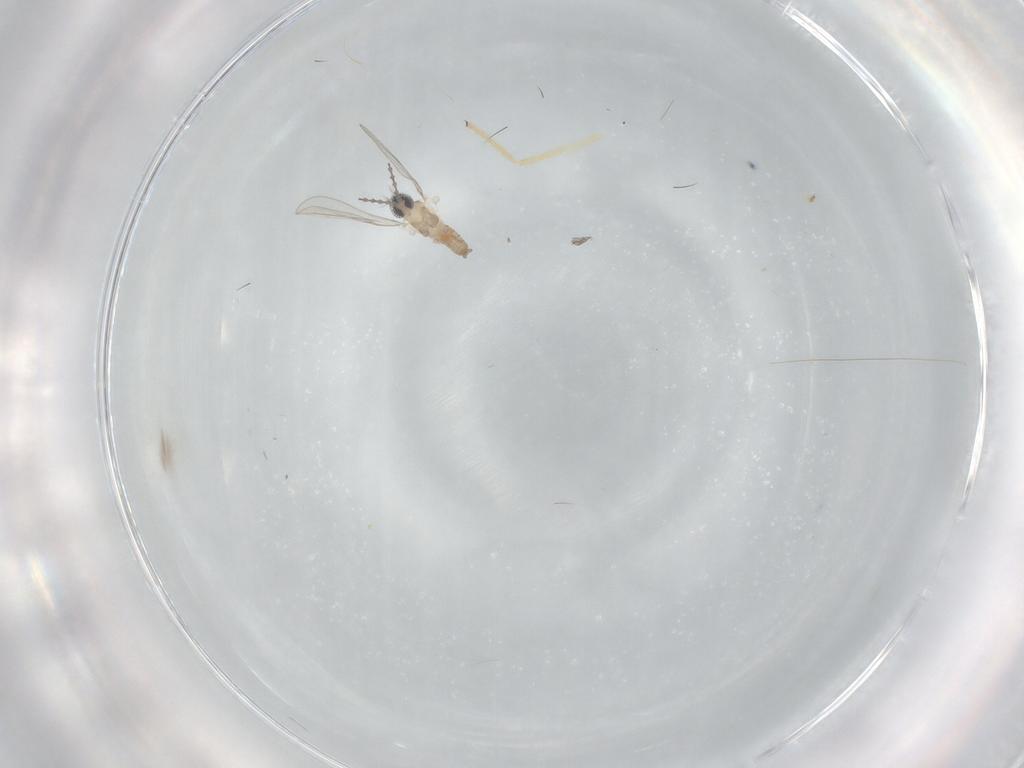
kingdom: Animalia
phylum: Arthropoda
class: Insecta
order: Diptera
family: Cecidomyiidae
